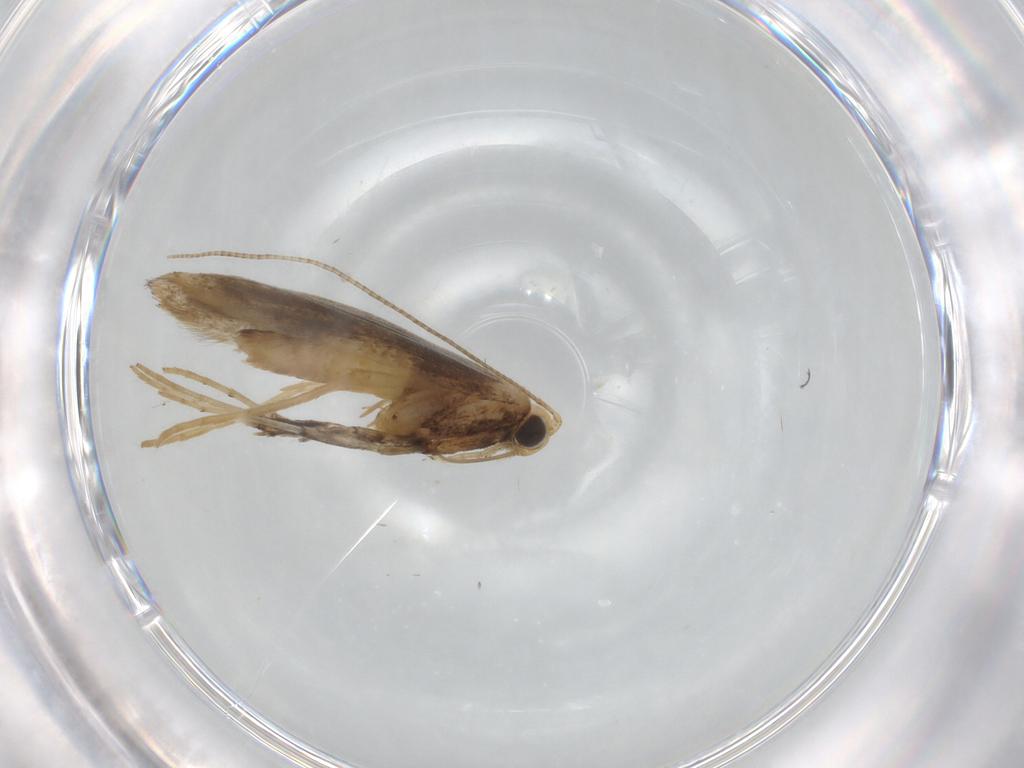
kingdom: Animalia
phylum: Arthropoda
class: Insecta
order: Lepidoptera
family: Gracillariidae
